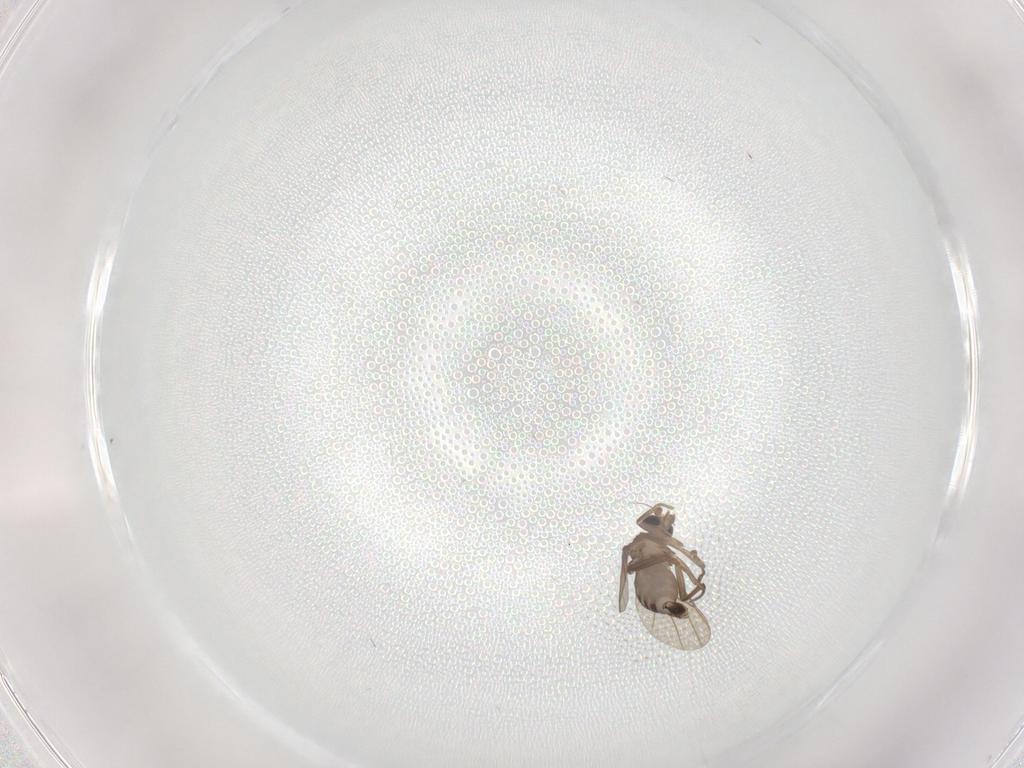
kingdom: Animalia
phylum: Arthropoda
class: Insecta
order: Diptera
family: Phoridae
